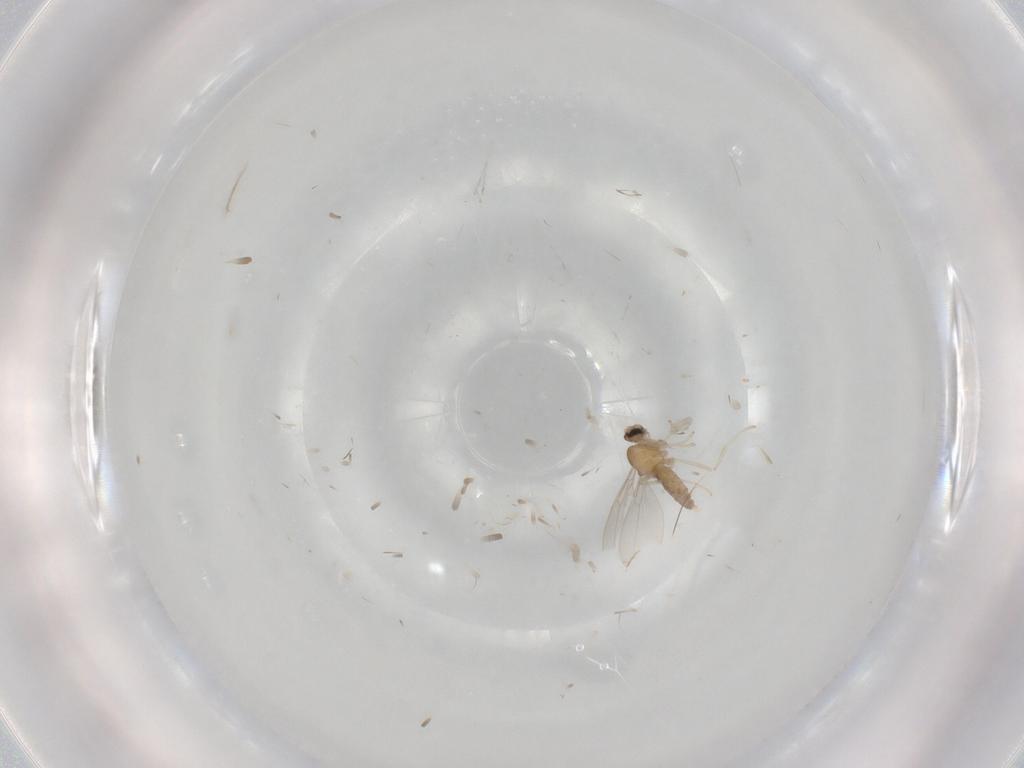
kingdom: Animalia
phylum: Arthropoda
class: Insecta
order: Diptera
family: Cecidomyiidae
